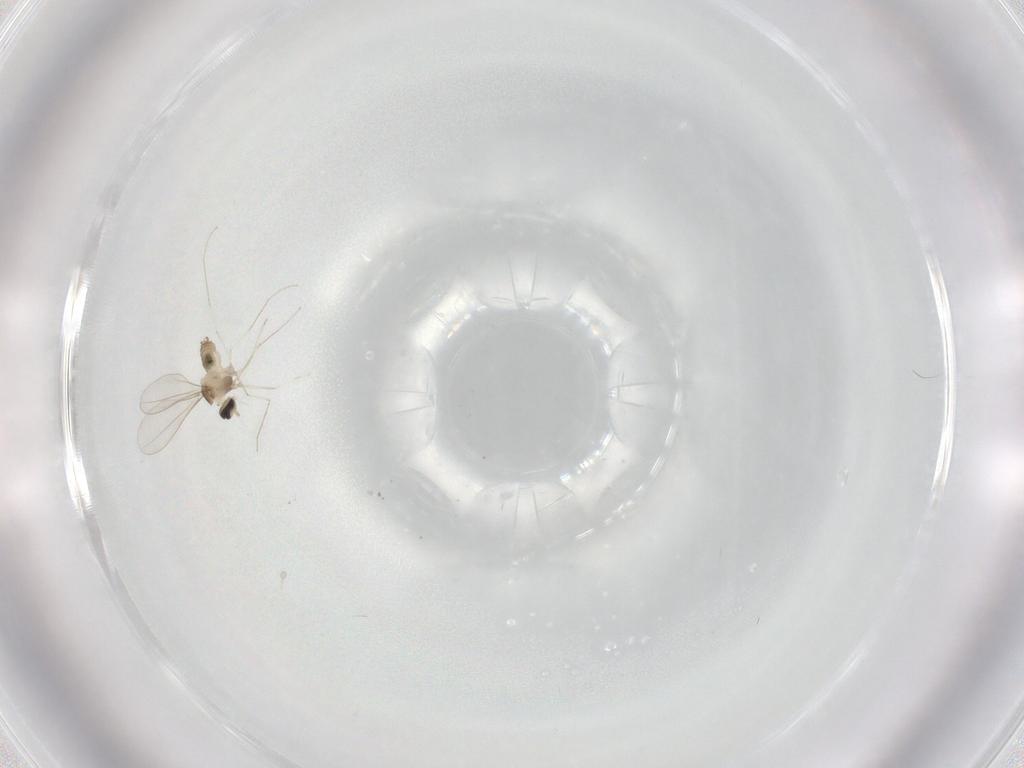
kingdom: Animalia
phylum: Arthropoda
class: Insecta
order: Diptera
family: Cecidomyiidae
